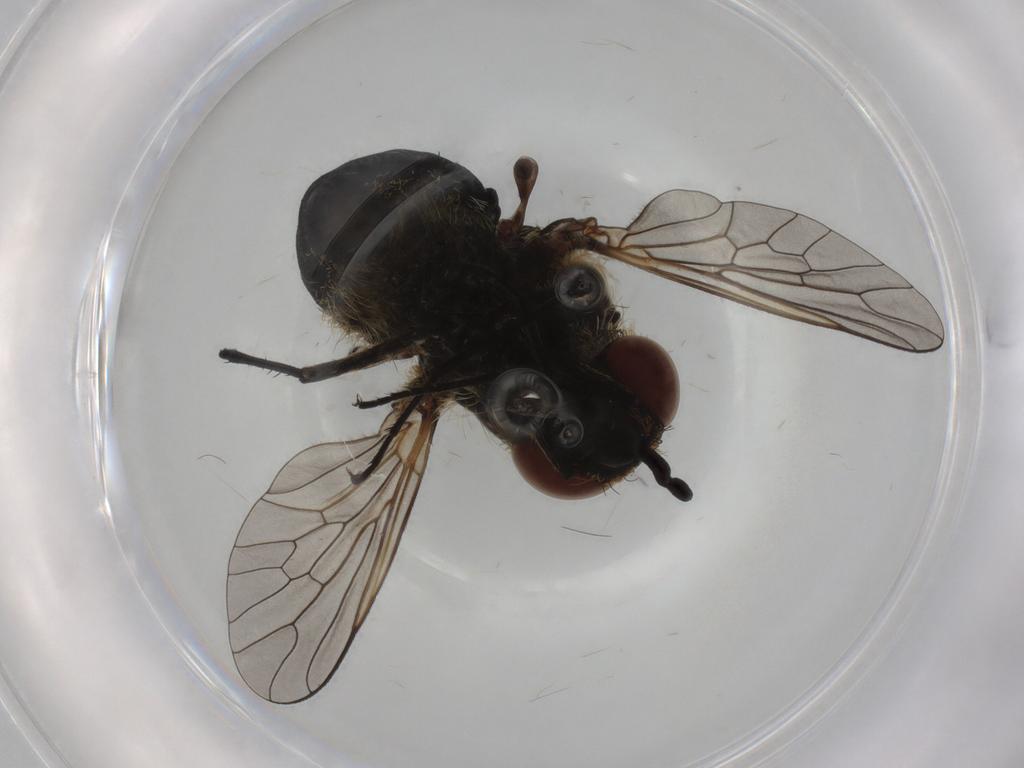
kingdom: Animalia
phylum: Arthropoda
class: Insecta
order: Diptera
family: Bombyliidae
